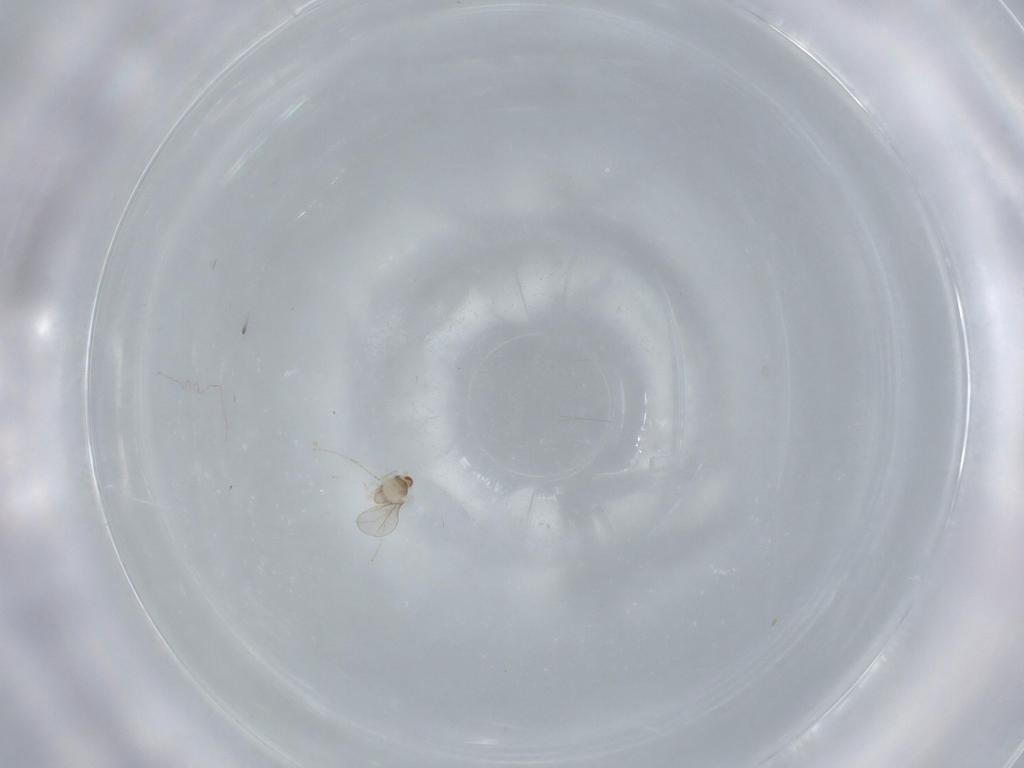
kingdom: Animalia
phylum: Arthropoda
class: Insecta
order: Diptera
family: Cecidomyiidae
